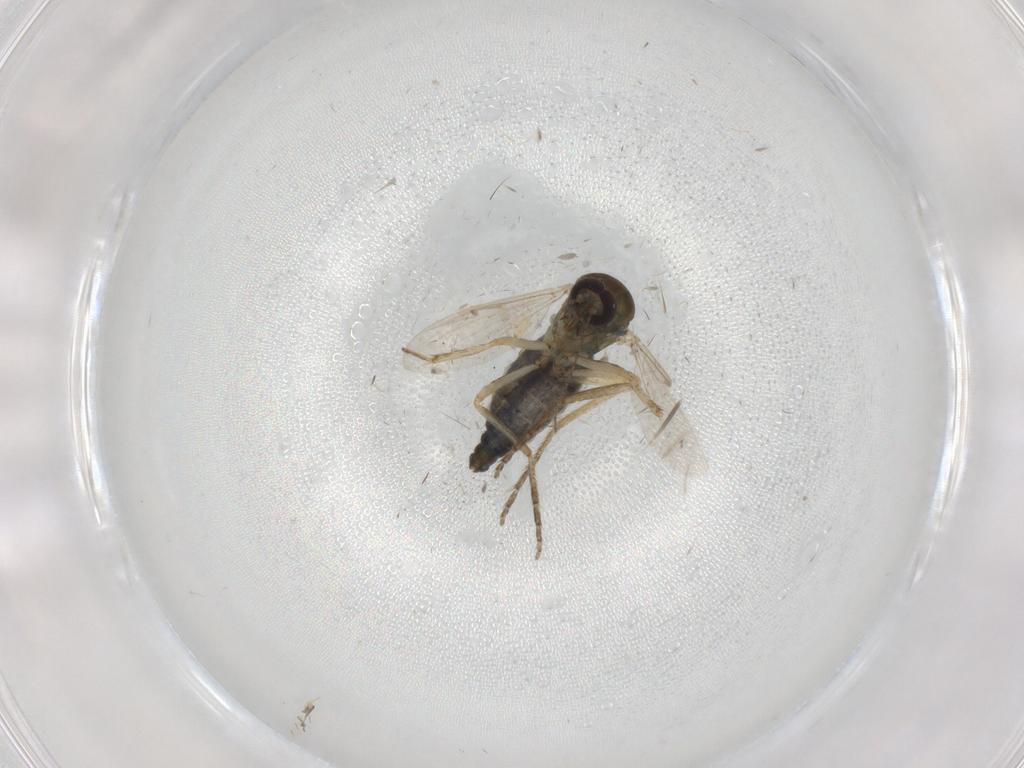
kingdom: Animalia
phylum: Arthropoda
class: Insecta
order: Diptera
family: Ceratopogonidae
